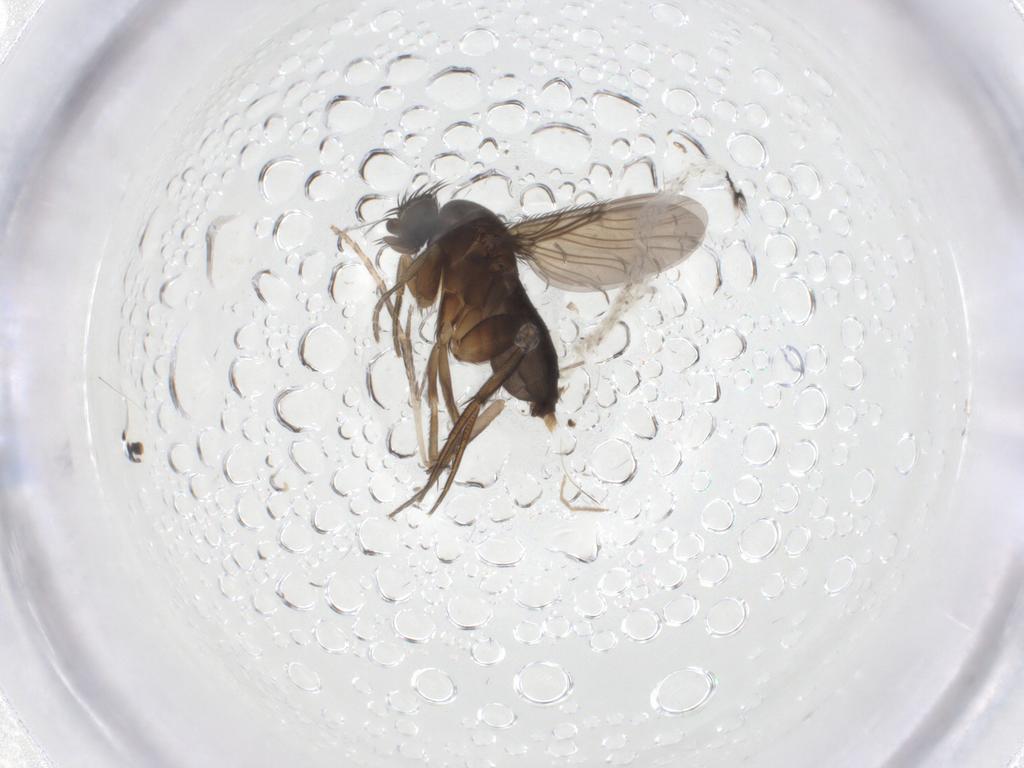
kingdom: Animalia
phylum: Arthropoda
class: Insecta
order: Diptera
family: Phoridae
